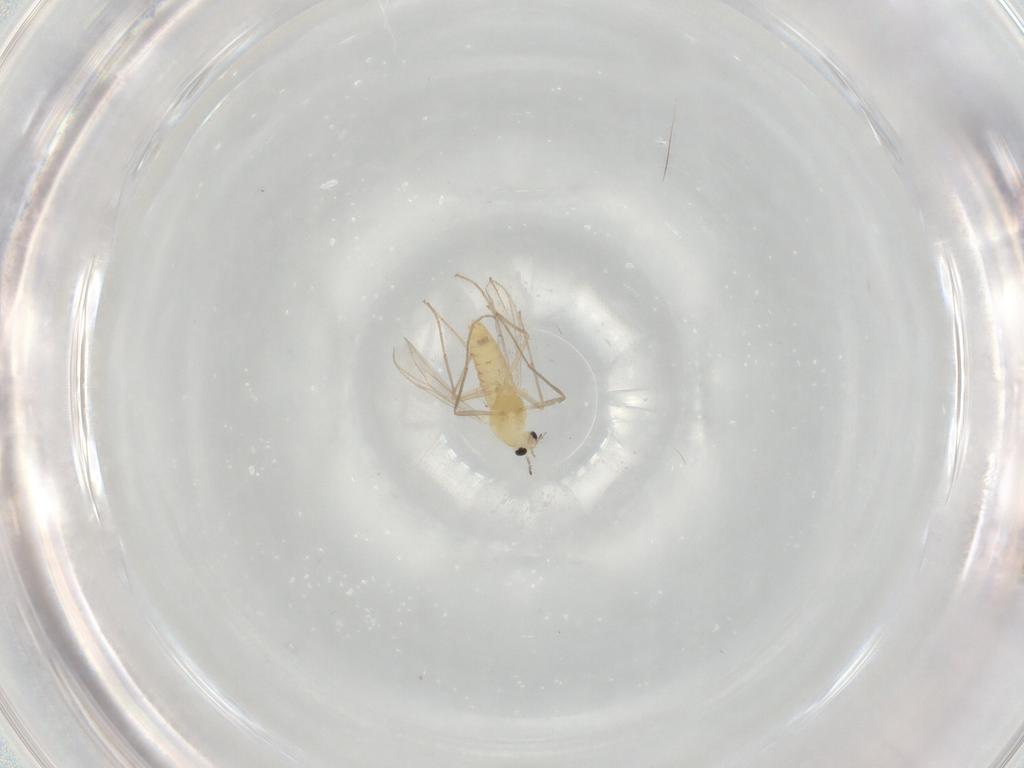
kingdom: Animalia
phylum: Arthropoda
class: Insecta
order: Diptera
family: Chironomidae
